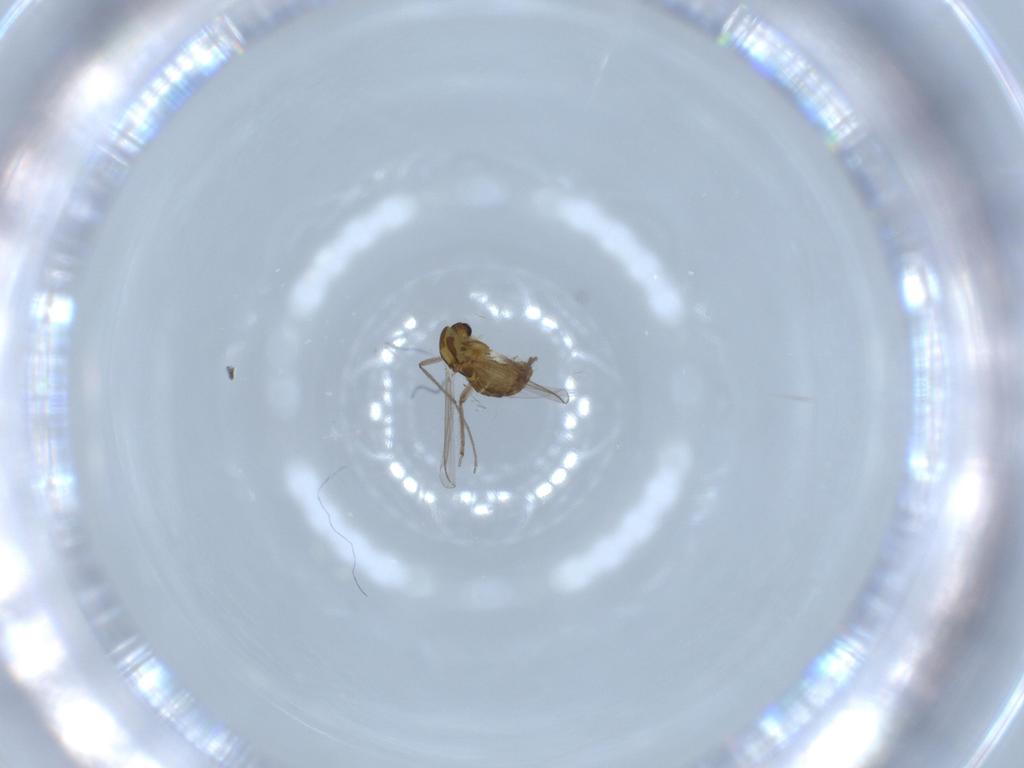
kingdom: Animalia
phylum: Arthropoda
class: Insecta
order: Diptera
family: Chironomidae
